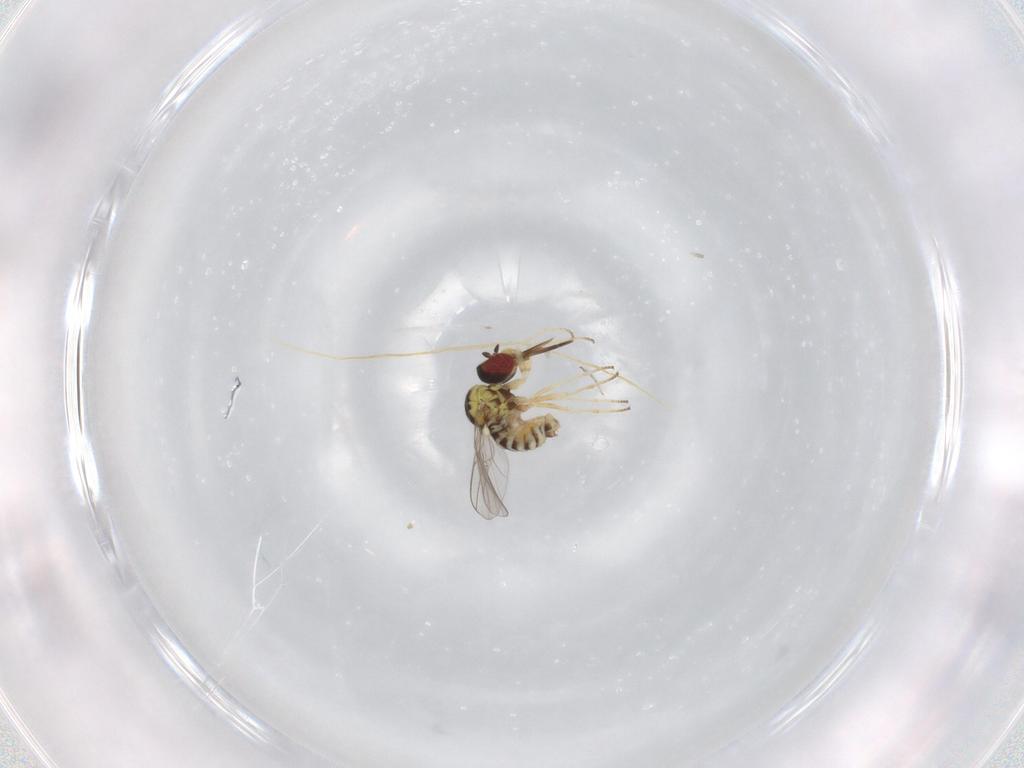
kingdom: Animalia
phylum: Arthropoda
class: Insecta
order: Diptera
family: Bombyliidae
